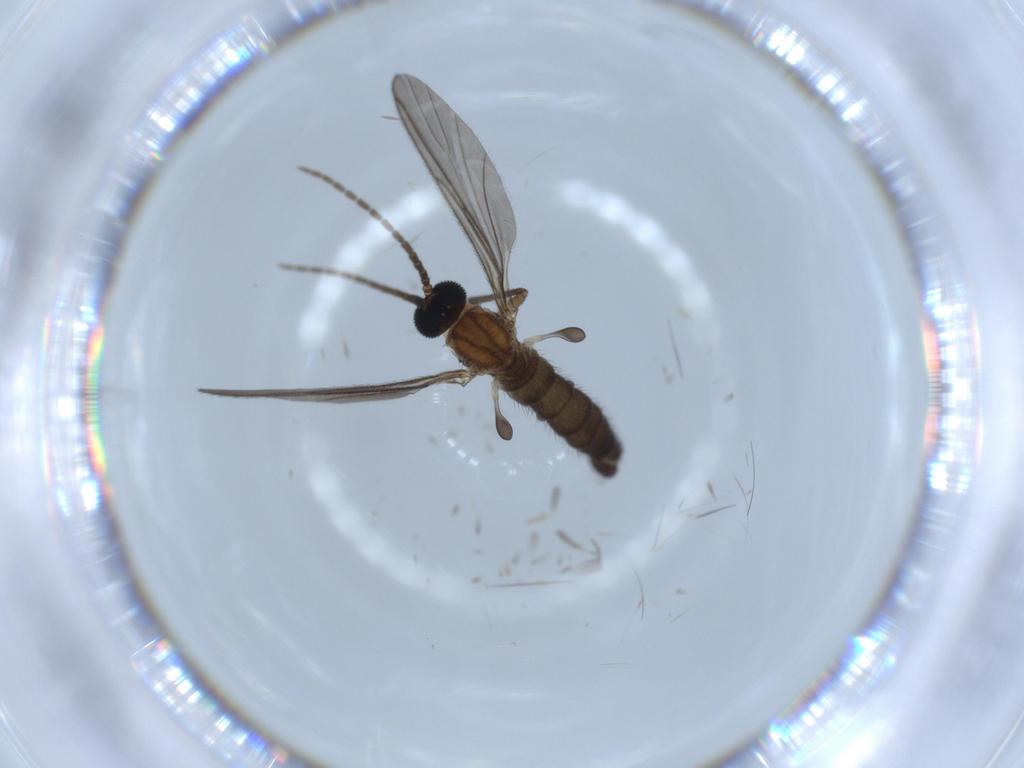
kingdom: Animalia
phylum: Arthropoda
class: Insecta
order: Diptera
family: Sciaridae
